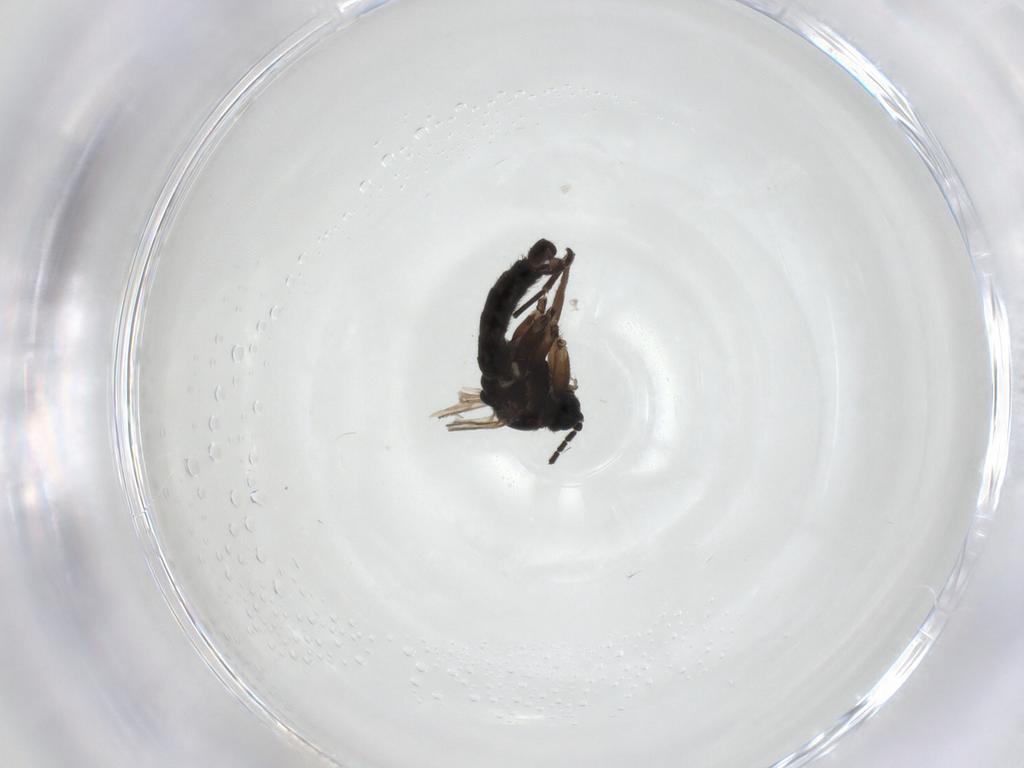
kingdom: Animalia
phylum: Arthropoda
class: Insecta
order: Diptera
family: Sciaridae
